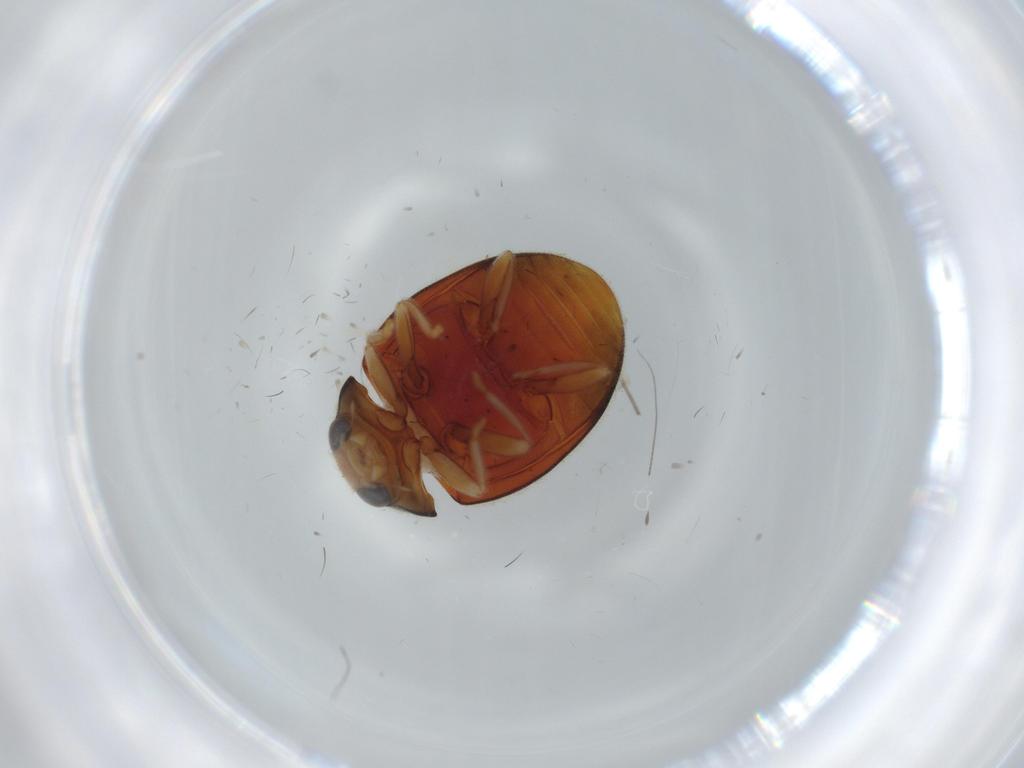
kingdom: Animalia
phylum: Arthropoda
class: Insecta
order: Coleoptera
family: Coccinellidae
